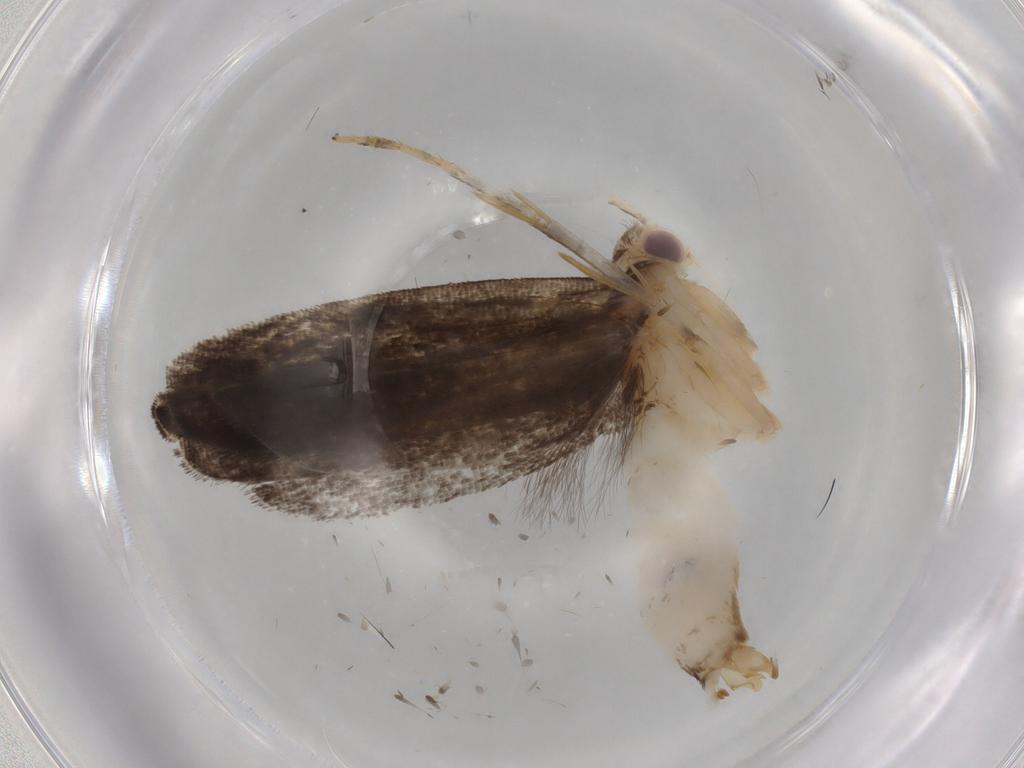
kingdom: Animalia
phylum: Arthropoda
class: Insecta
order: Lepidoptera
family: Gelechiidae
